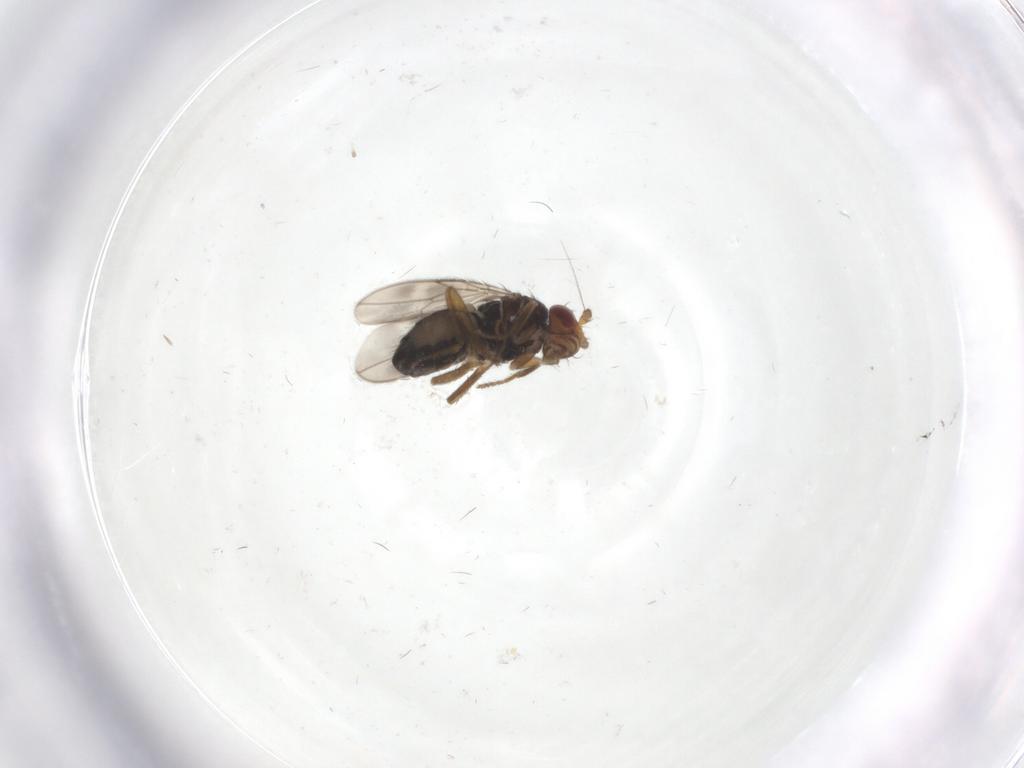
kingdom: Animalia
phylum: Arthropoda
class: Insecta
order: Diptera
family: Sphaeroceridae
